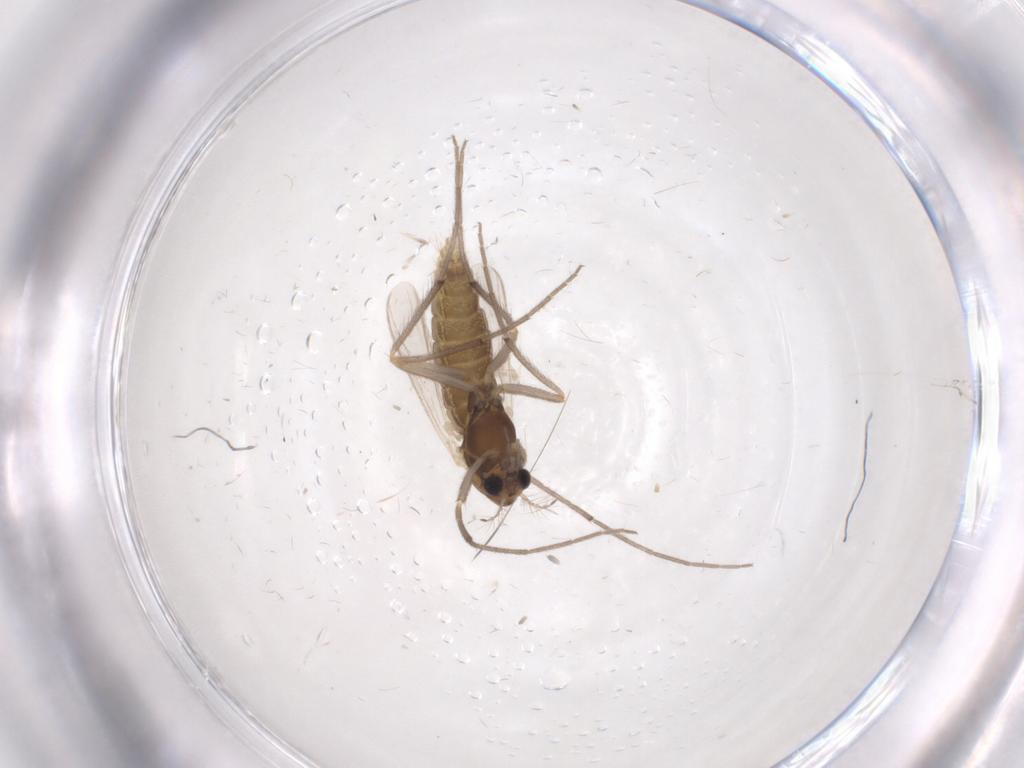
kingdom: Animalia
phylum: Arthropoda
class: Insecta
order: Diptera
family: Chironomidae
